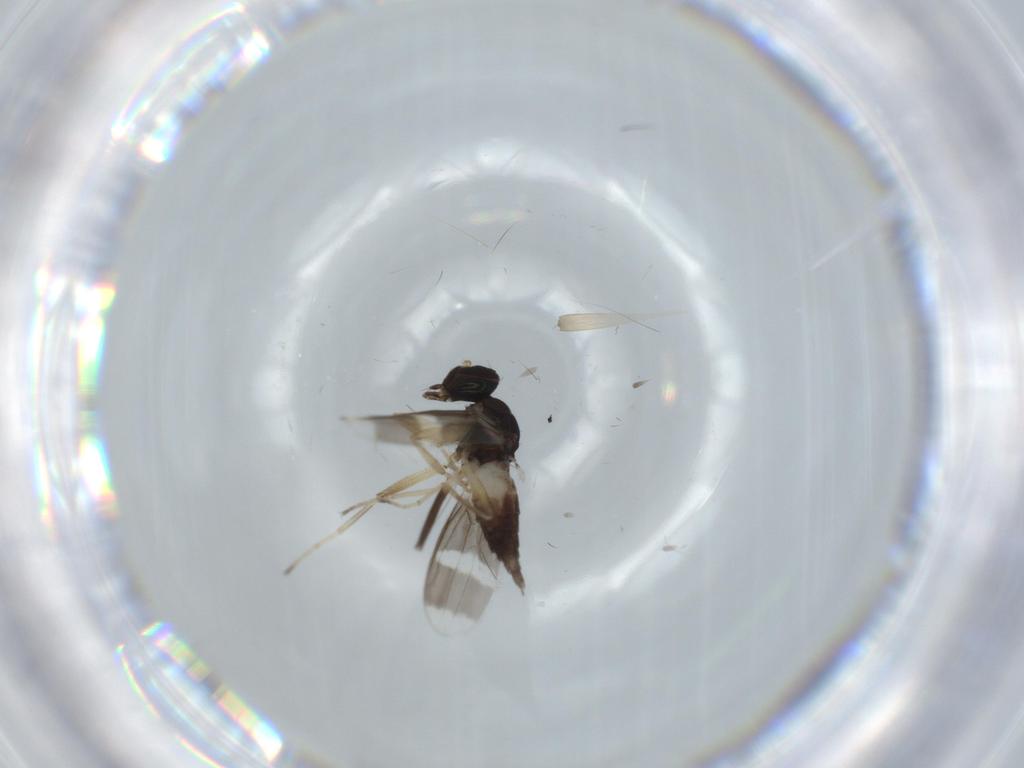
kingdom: Animalia
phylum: Arthropoda
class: Insecta
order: Diptera
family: Hybotidae
